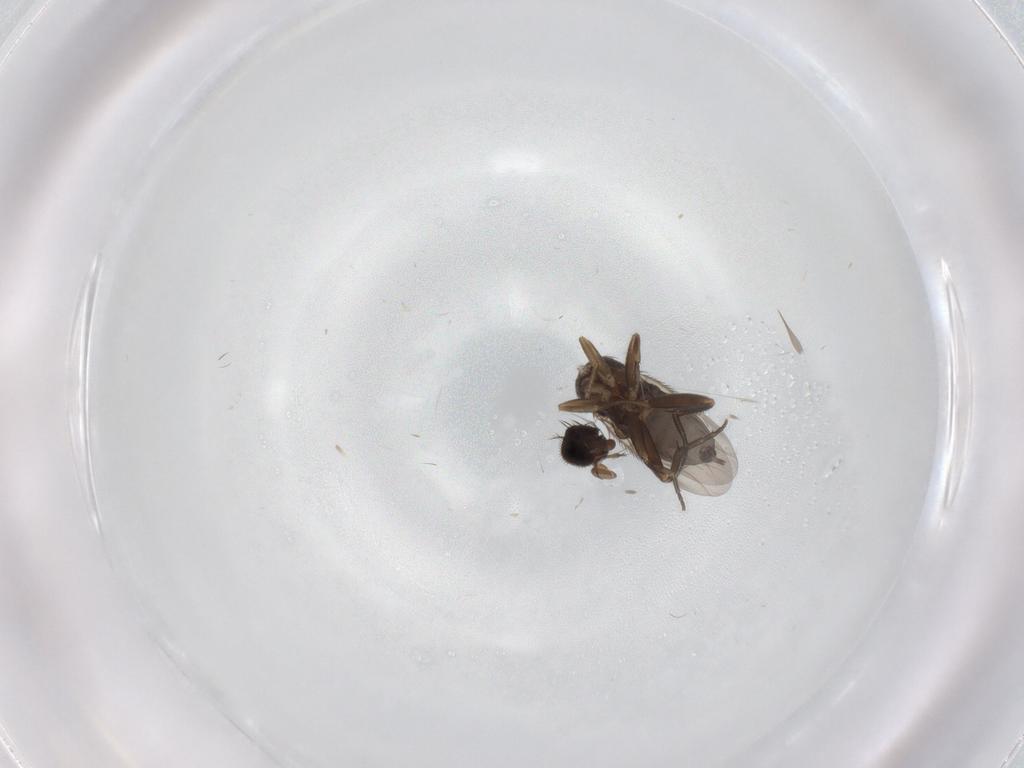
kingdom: Animalia
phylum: Arthropoda
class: Insecta
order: Diptera
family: Phoridae
